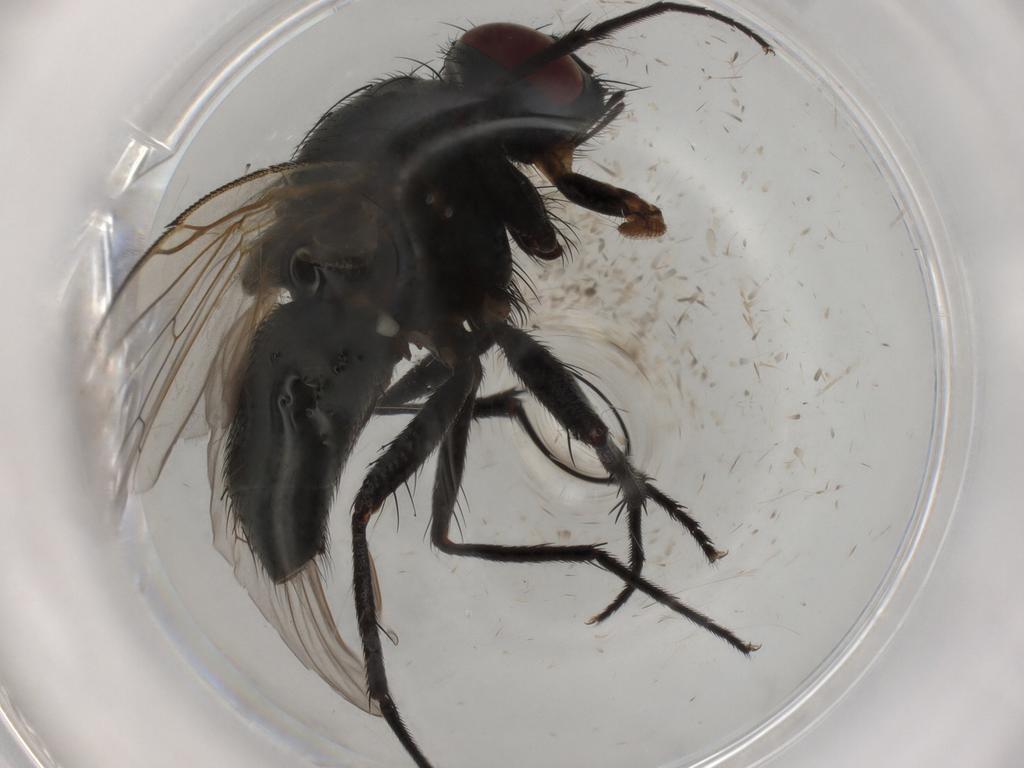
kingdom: Animalia
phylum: Arthropoda
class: Insecta
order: Diptera
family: Muscidae
